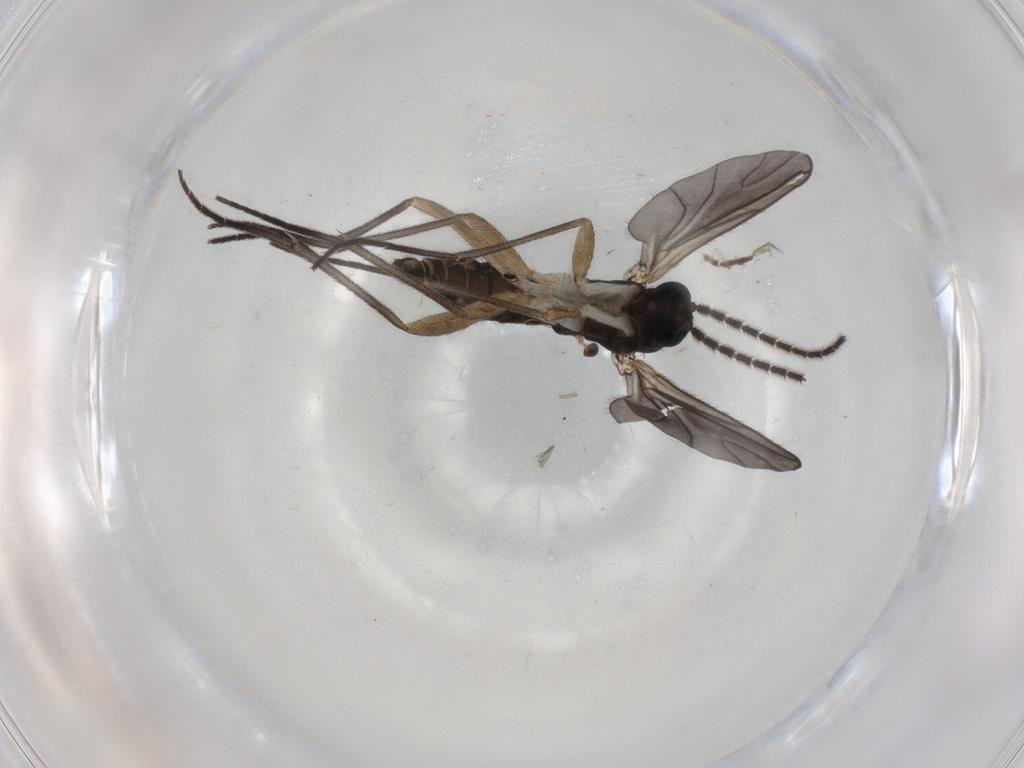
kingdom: Animalia
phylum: Arthropoda
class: Insecta
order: Diptera
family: Sciaridae
